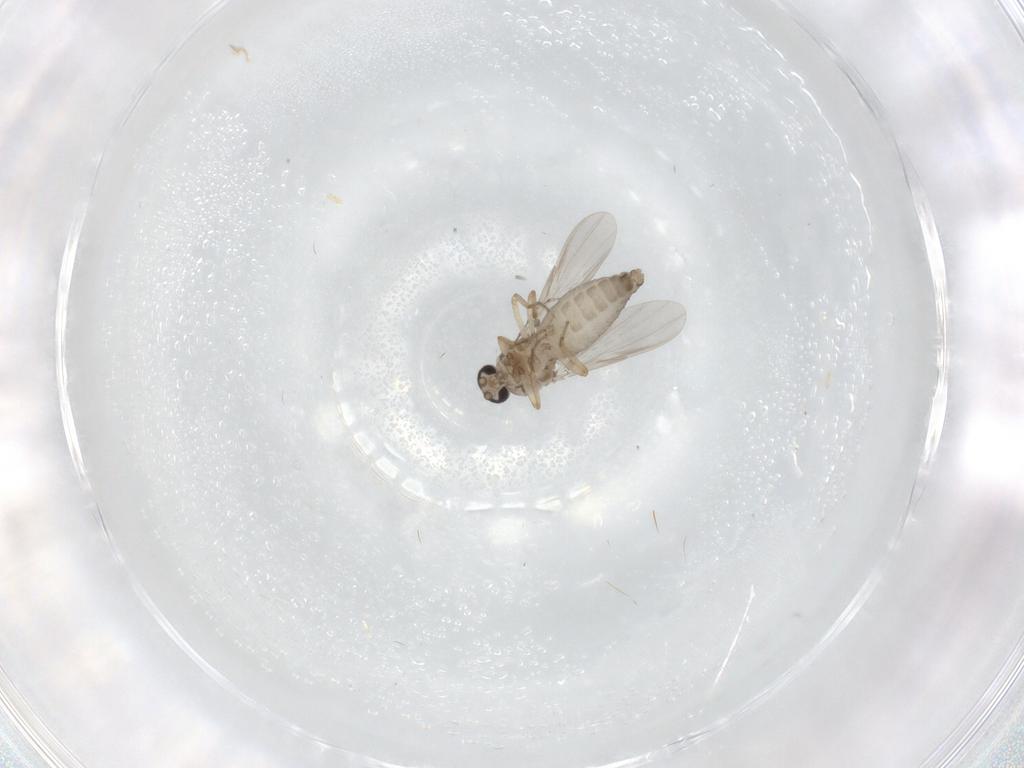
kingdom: Animalia
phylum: Arthropoda
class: Insecta
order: Diptera
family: Ceratopogonidae
